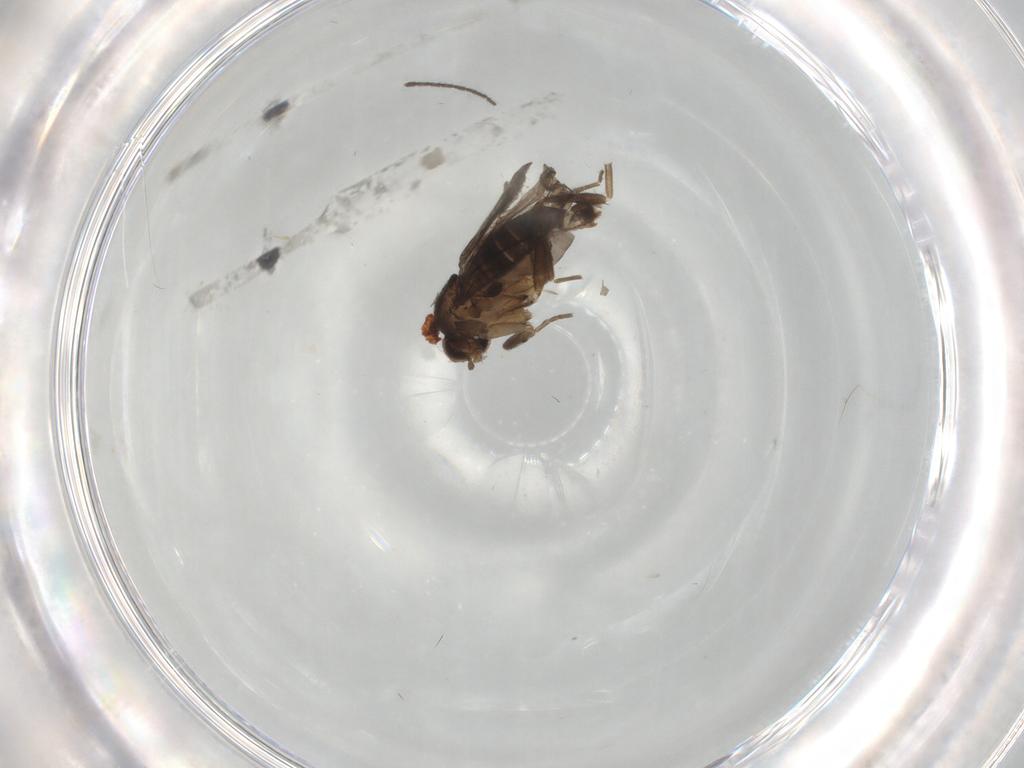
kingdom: Animalia
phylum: Arthropoda
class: Insecta
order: Diptera
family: Phoridae
